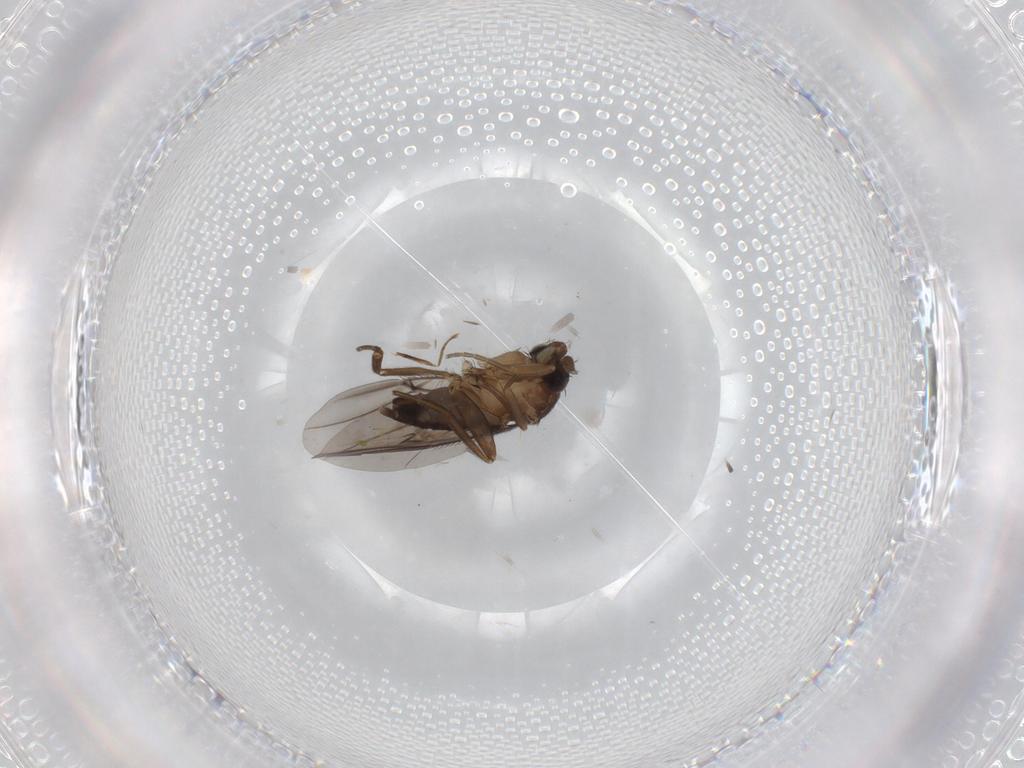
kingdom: Animalia
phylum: Arthropoda
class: Insecta
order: Diptera
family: Cecidomyiidae
